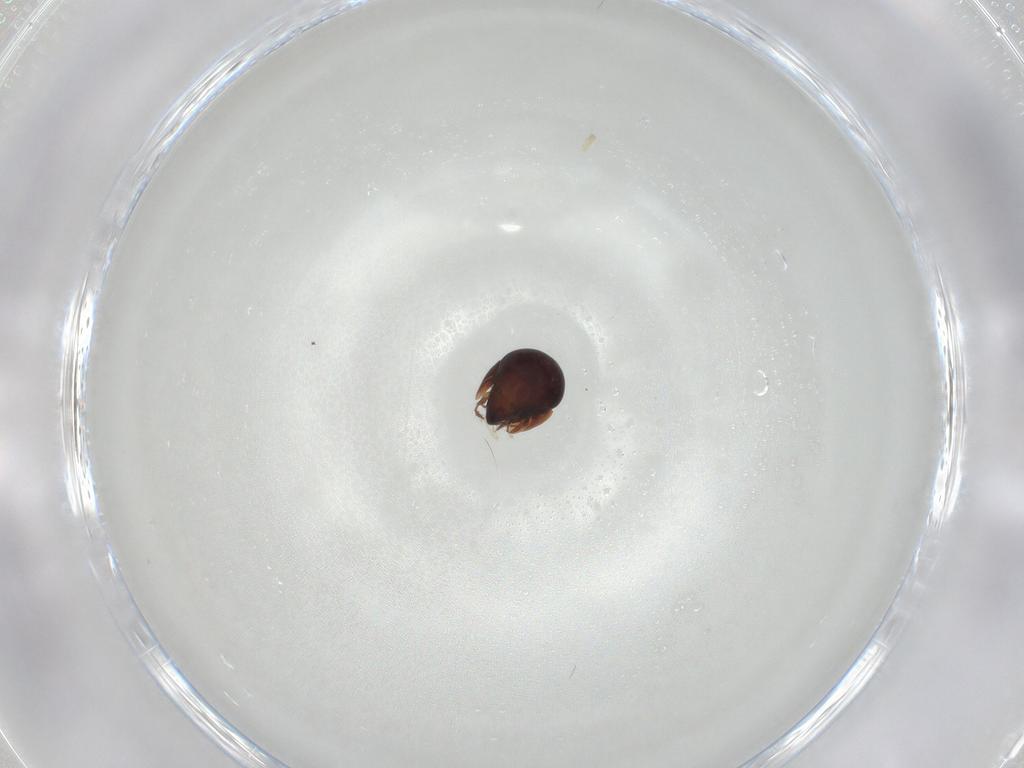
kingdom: Animalia
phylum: Arthropoda
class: Arachnida
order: Sarcoptiformes
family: Galumnidae
